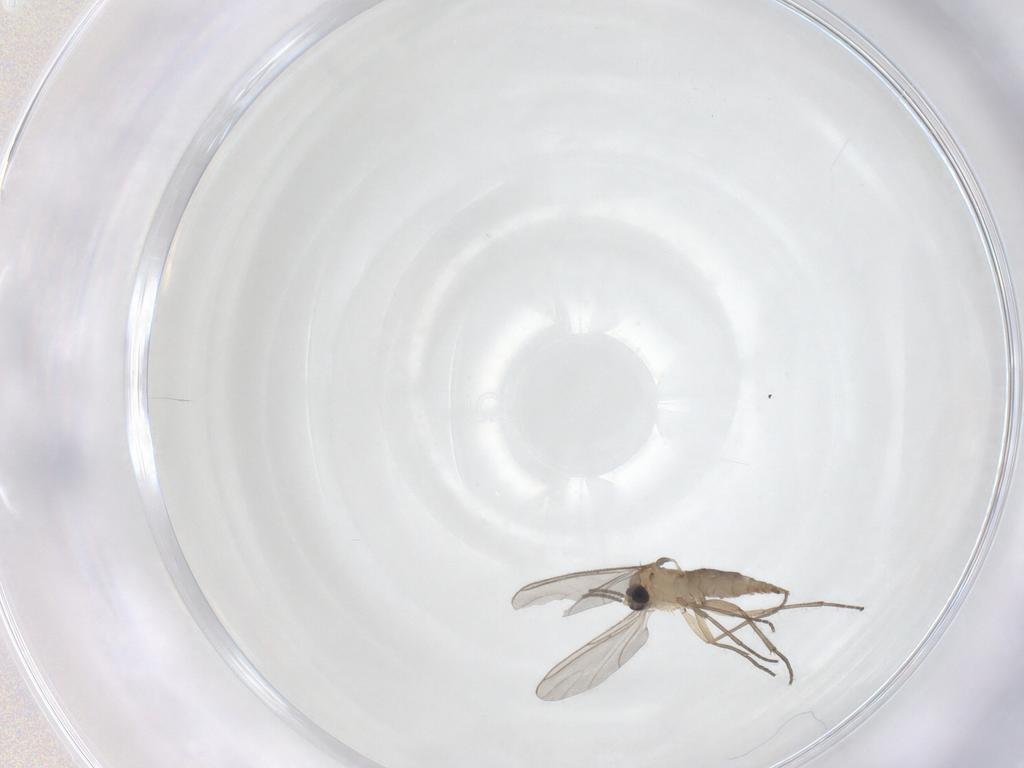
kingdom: Animalia
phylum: Arthropoda
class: Insecta
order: Diptera
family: Sciaridae
